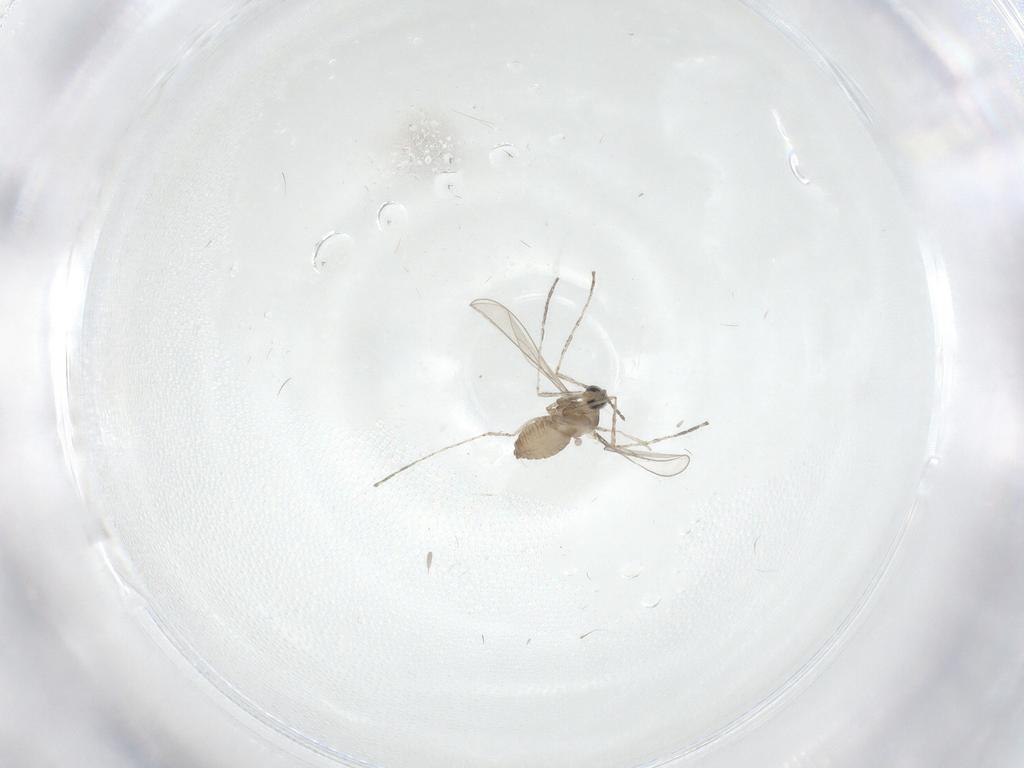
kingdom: Animalia
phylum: Arthropoda
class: Insecta
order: Diptera
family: Cecidomyiidae
